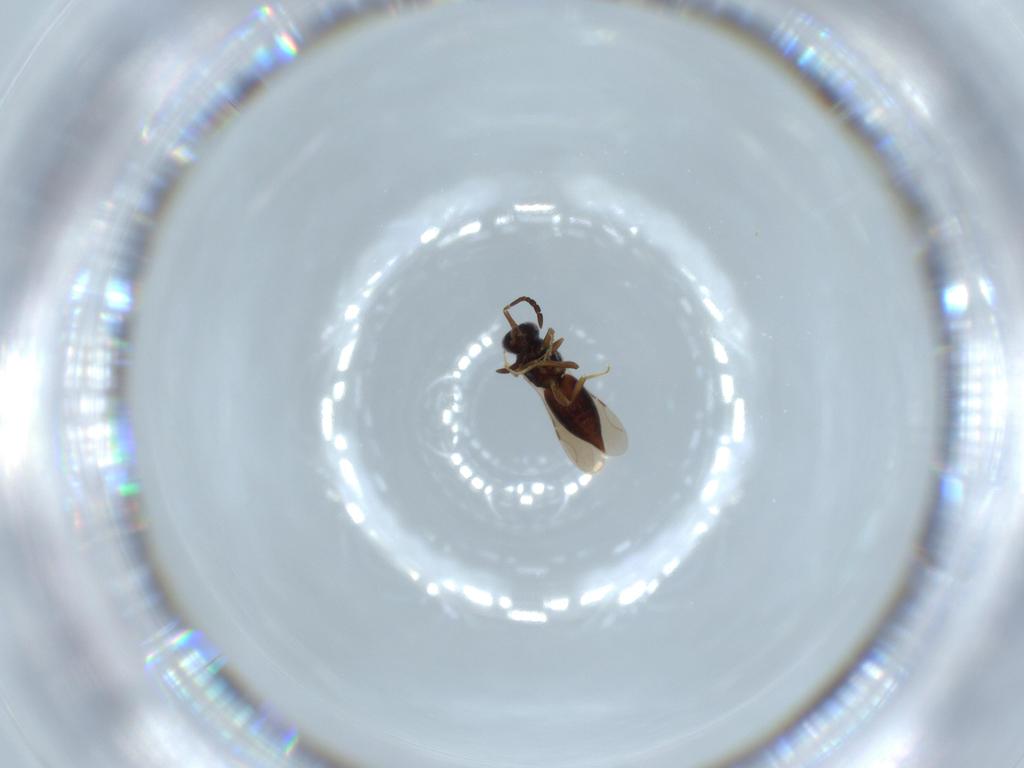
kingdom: Animalia
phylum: Arthropoda
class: Insecta
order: Hymenoptera
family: Ceraphronidae
